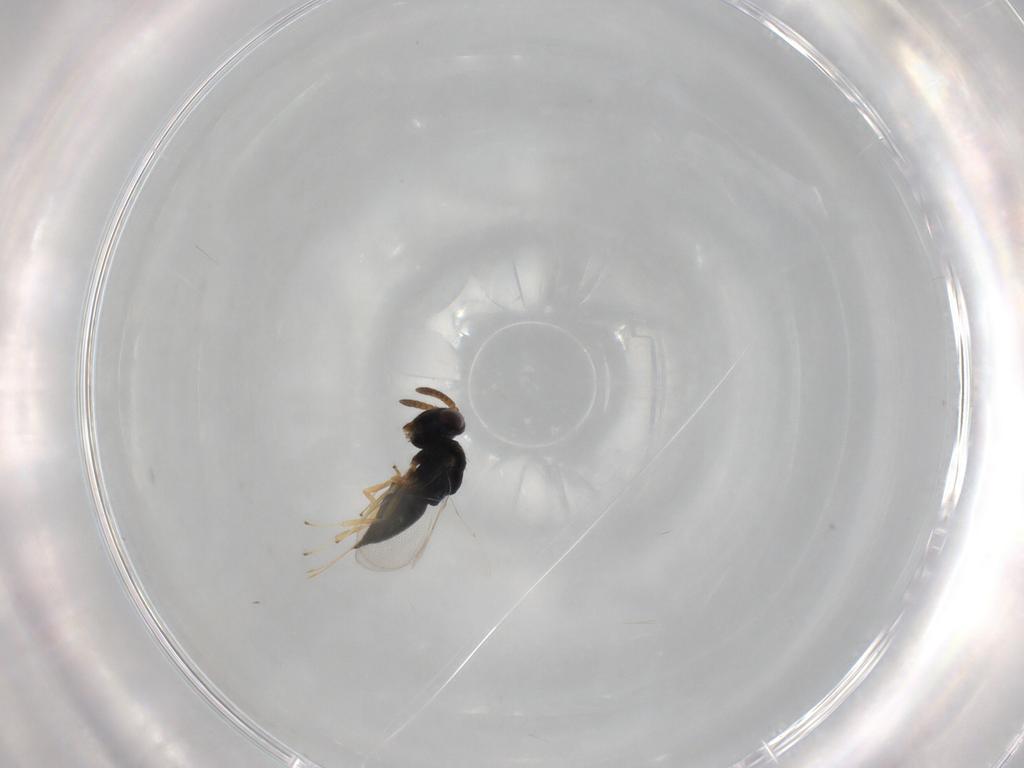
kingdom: Animalia
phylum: Arthropoda
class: Insecta
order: Hymenoptera
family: Pteromalidae
